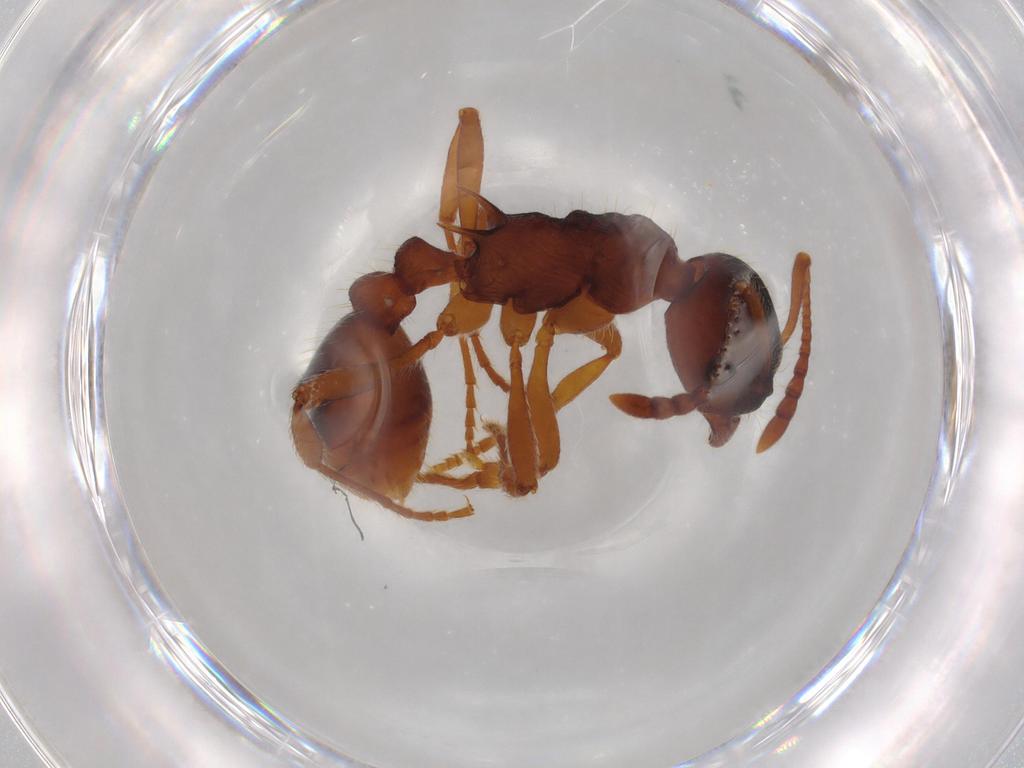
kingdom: Animalia
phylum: Arthropoda
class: Insecta
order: Hymenoptera
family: Formicidae
